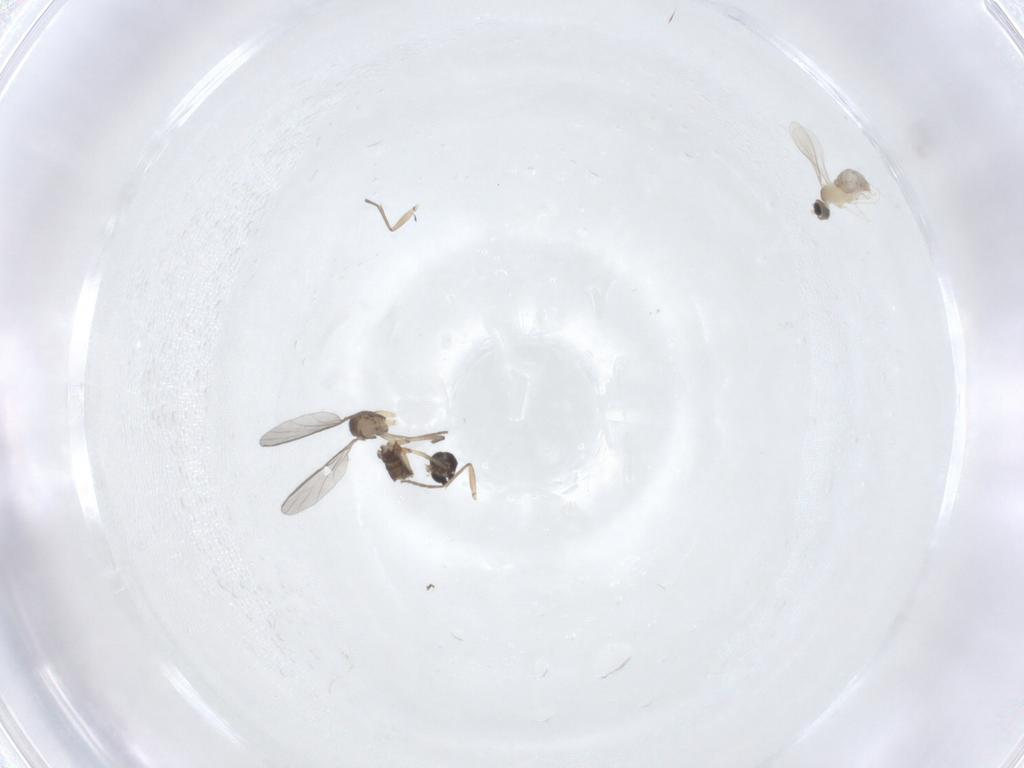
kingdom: Animalia
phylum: Arthropoda
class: Insecta
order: Diptera
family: Sciaridae
